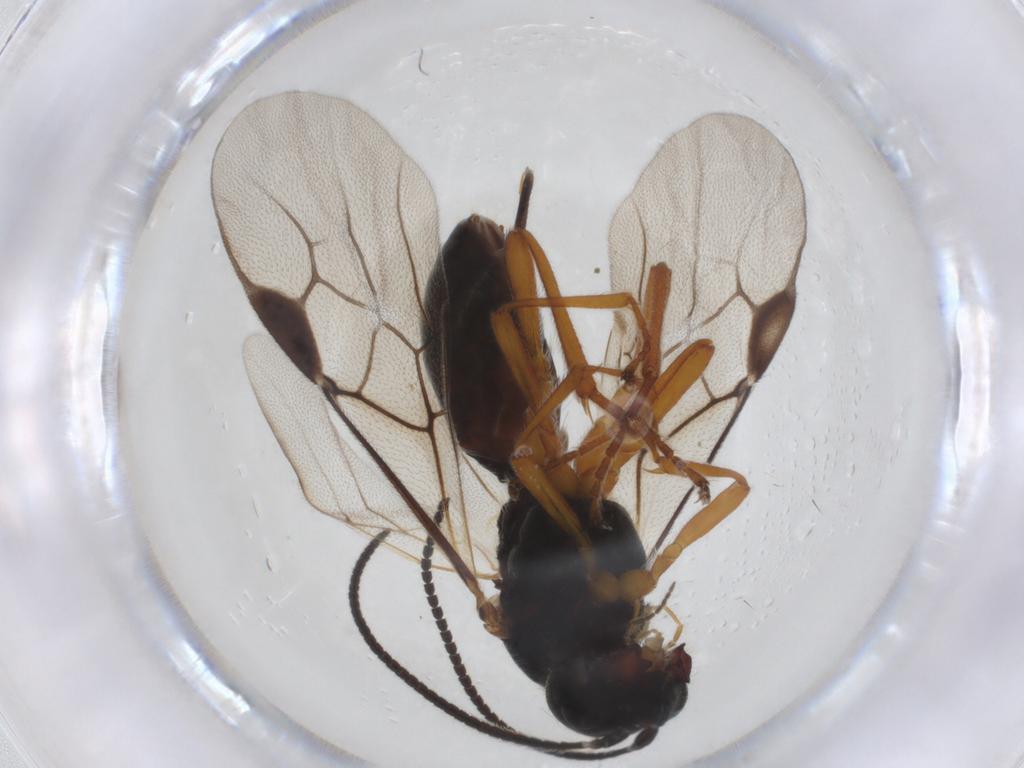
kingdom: Animalia
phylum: Arthropoda
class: Insecta
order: Hymenoptera
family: Braconidae
